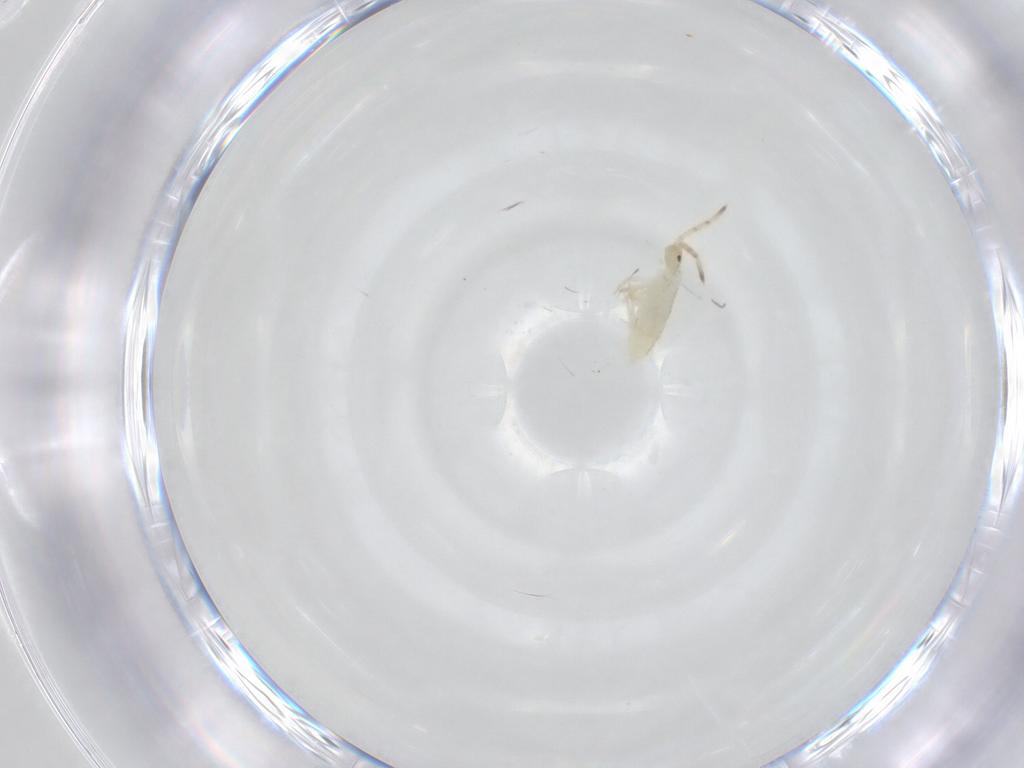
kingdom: Animalia
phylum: Arthropoda
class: Collembola
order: Entomobryomorpha
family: Entomobryidae
